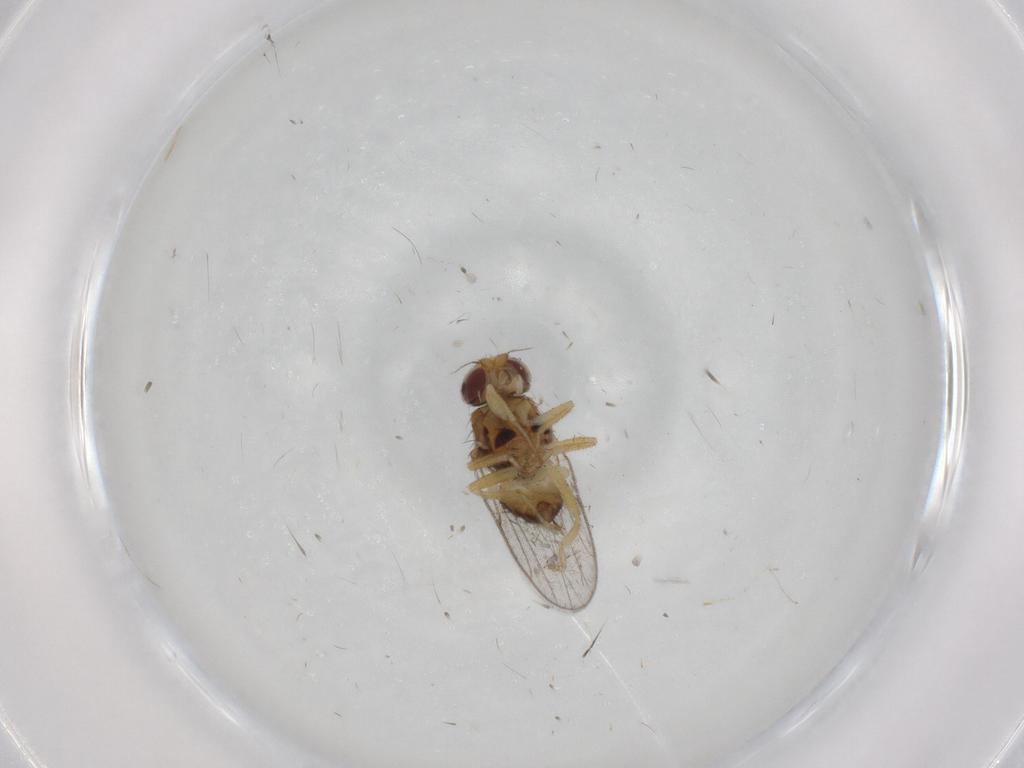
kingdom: Animalia
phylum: Arthropoda
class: Insecta
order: Diptera
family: Chloropidae
